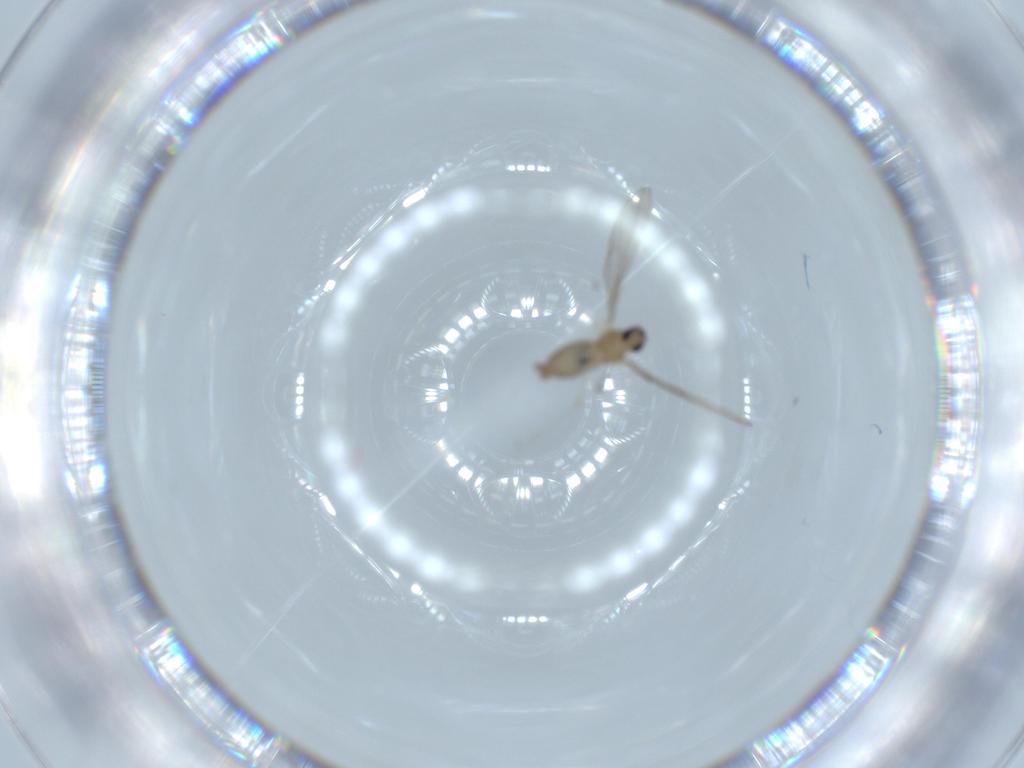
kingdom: Animalia
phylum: Arthropoda
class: Insecta
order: Diptera
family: Cecidomyiidae
